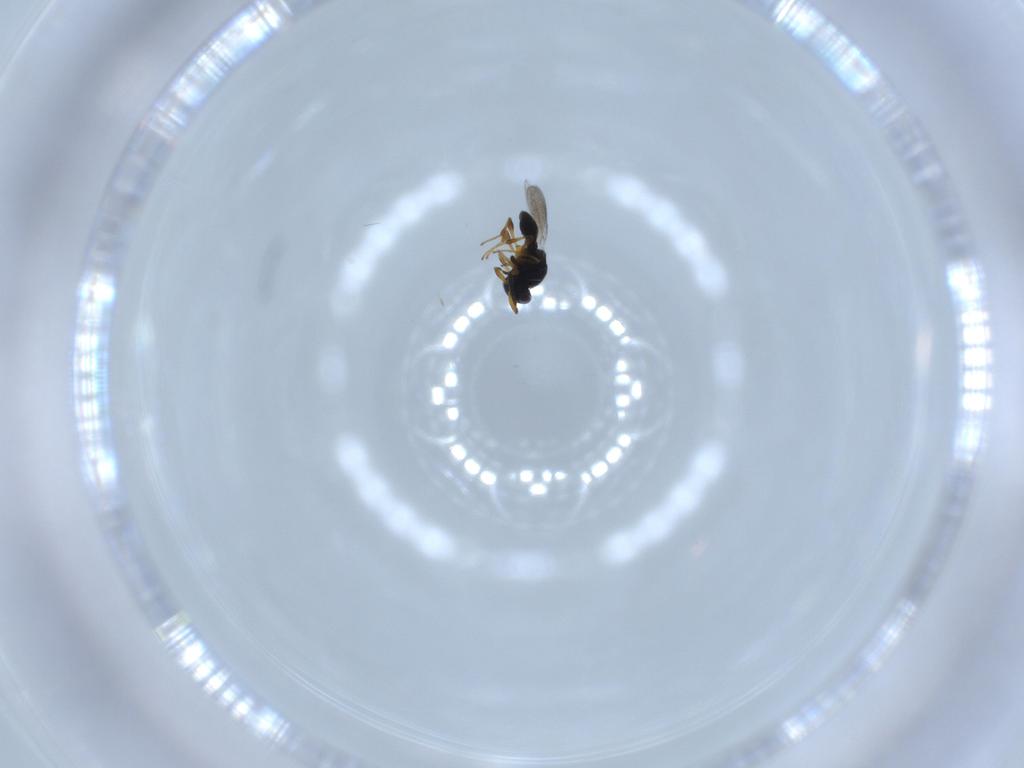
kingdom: Animalia
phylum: Arthropoda
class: Insecta
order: Hymenoptera
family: Platygastridae
